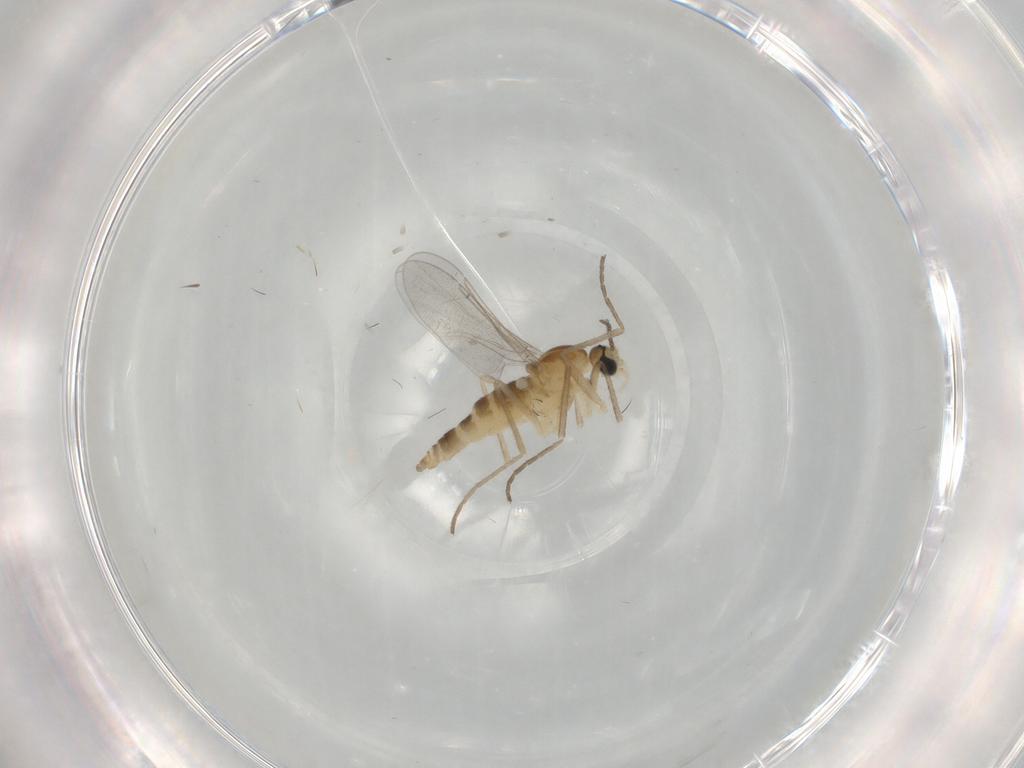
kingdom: Animalia
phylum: Arthropoda
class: Insecta
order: Diptera
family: Cecidomyiidae
